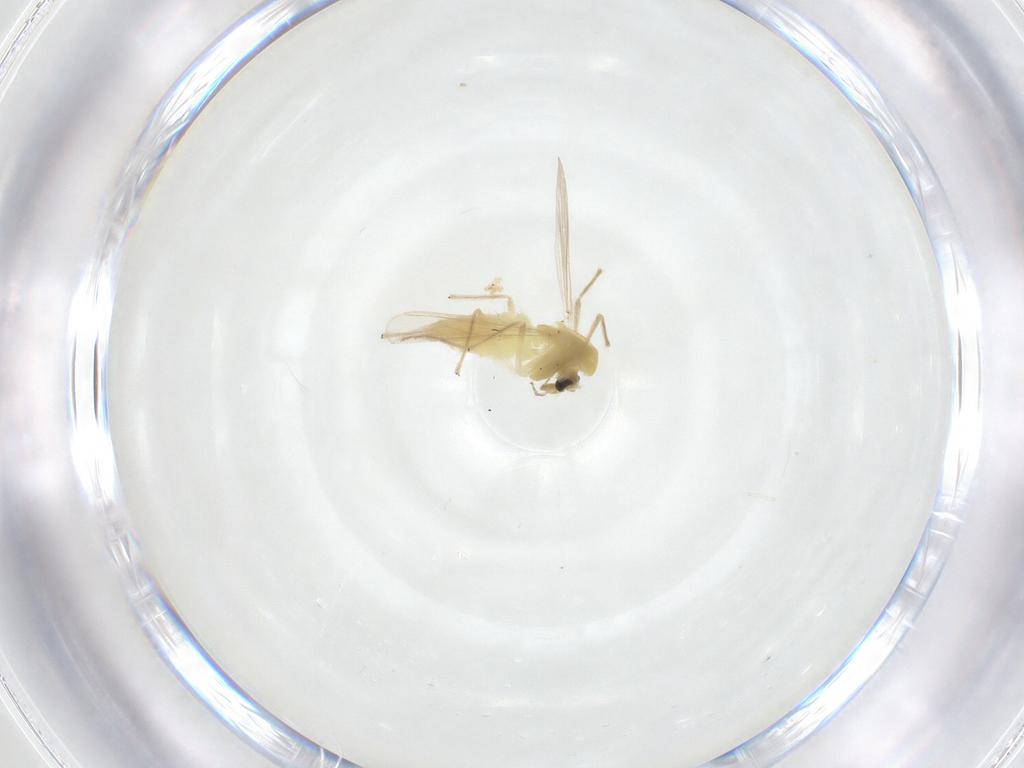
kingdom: Animalia
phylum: Arthropoda
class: Insecta
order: Diptera
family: Chironomidae
